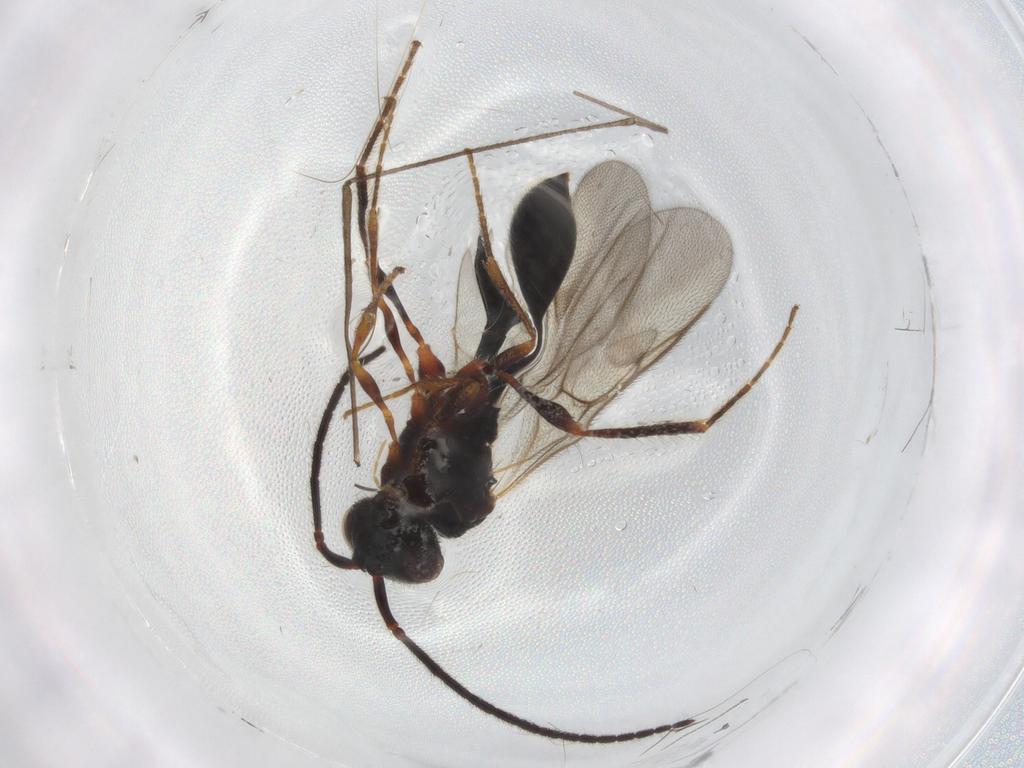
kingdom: Animalia
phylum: Arthropoda
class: Insecta
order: Hymenoptera
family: Diapriidae
